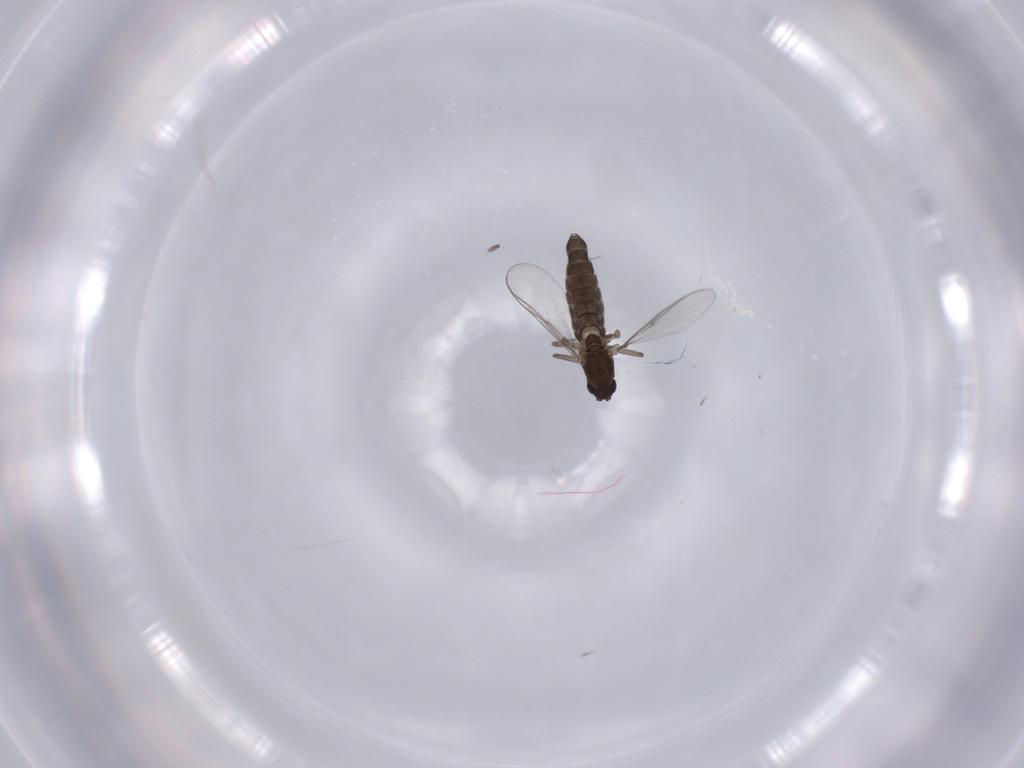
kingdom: Animalia
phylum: Arthropoda
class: Insecta
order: Diptera
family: Chironomidae
